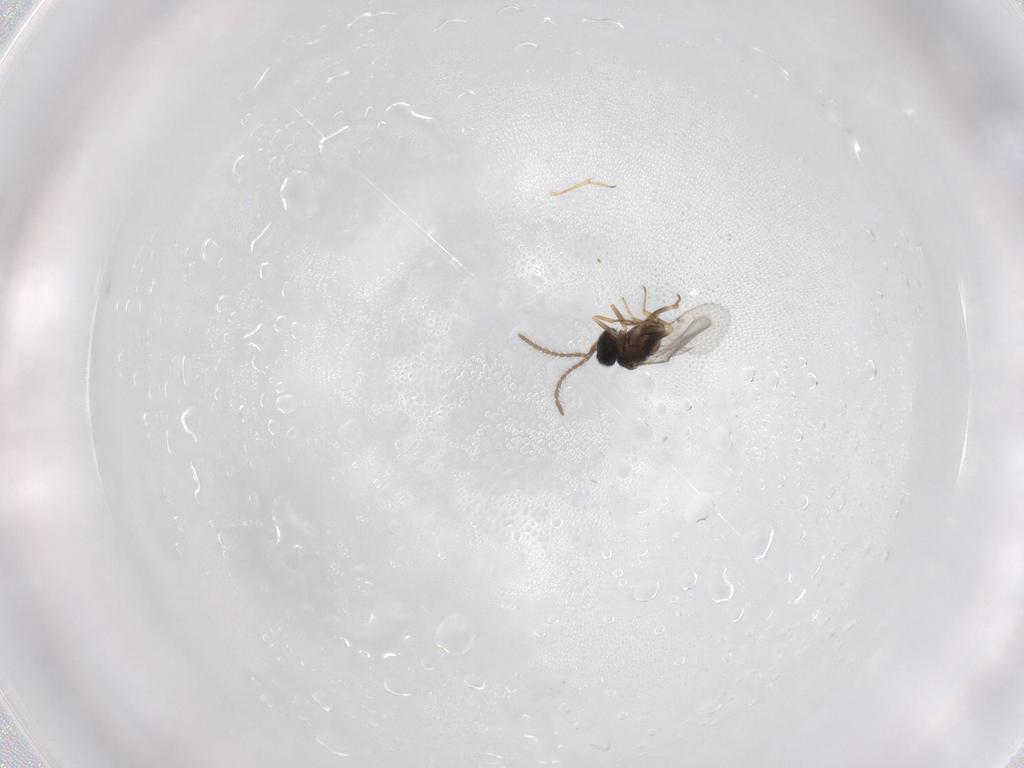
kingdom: Animalia
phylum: Arthropoda
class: Insecta
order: Hymenoptera
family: Encyrtidae
